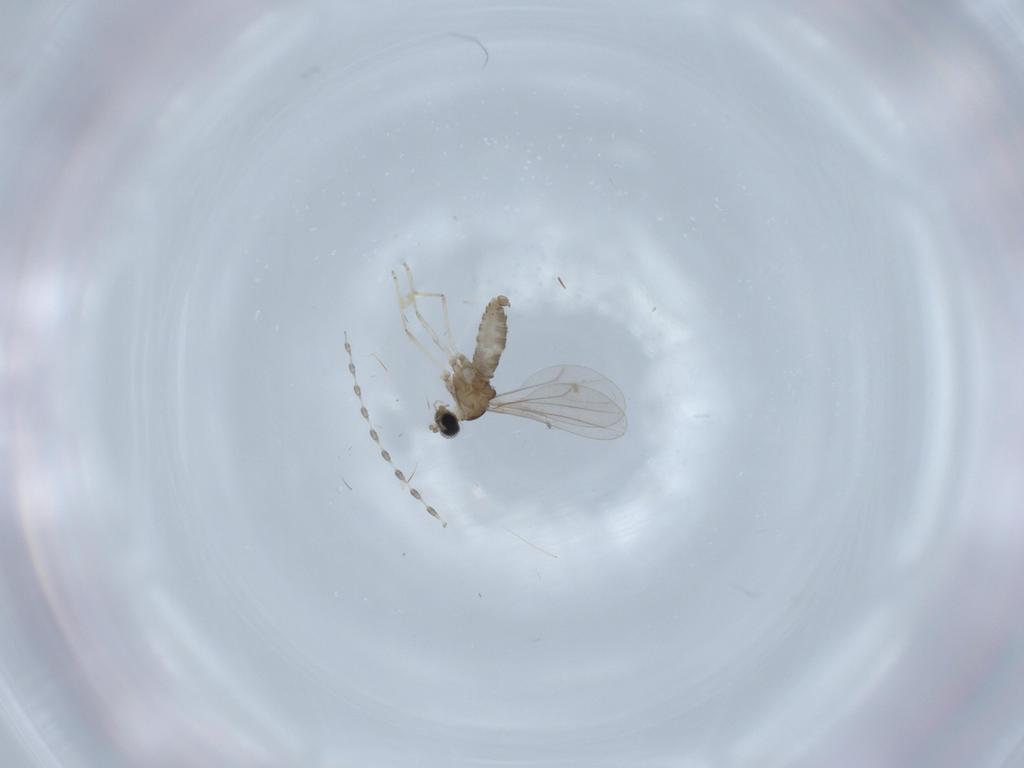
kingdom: Animalia
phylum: Arthropoda
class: Insecta
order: Diptera
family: Cecidomyiidae
